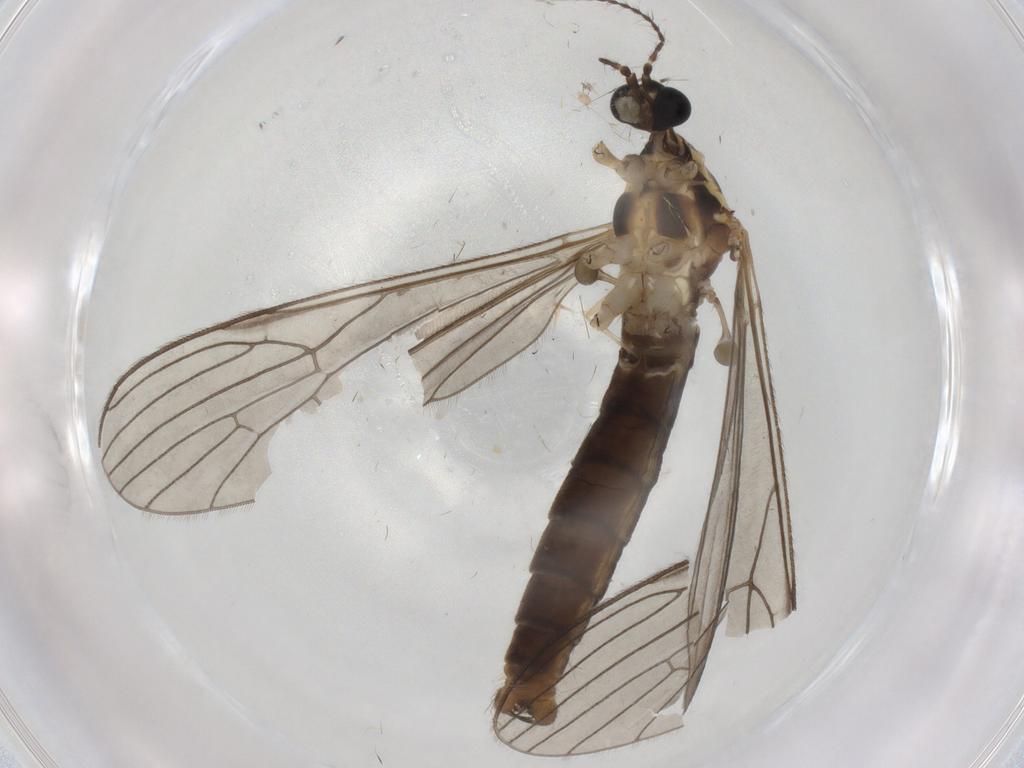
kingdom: Animalia
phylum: Arthropoda
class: Insecta
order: Diptera
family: Limoniidae
